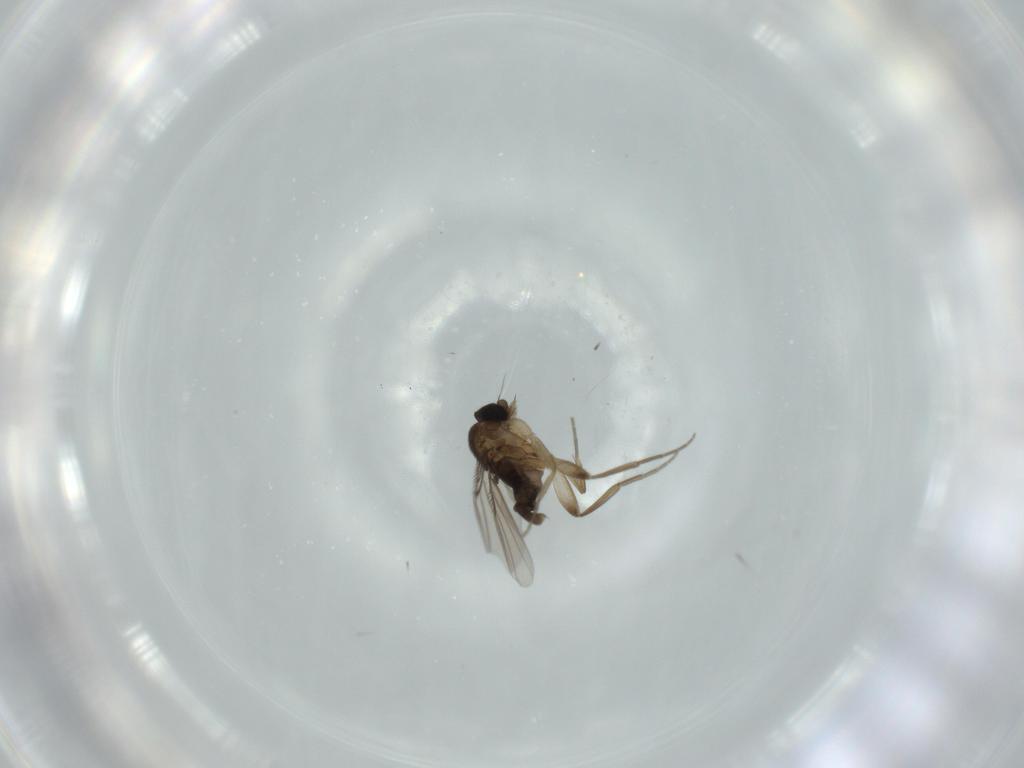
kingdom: Animalia
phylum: Arthropoda
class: Insecta
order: Diptera
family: Phoridae
